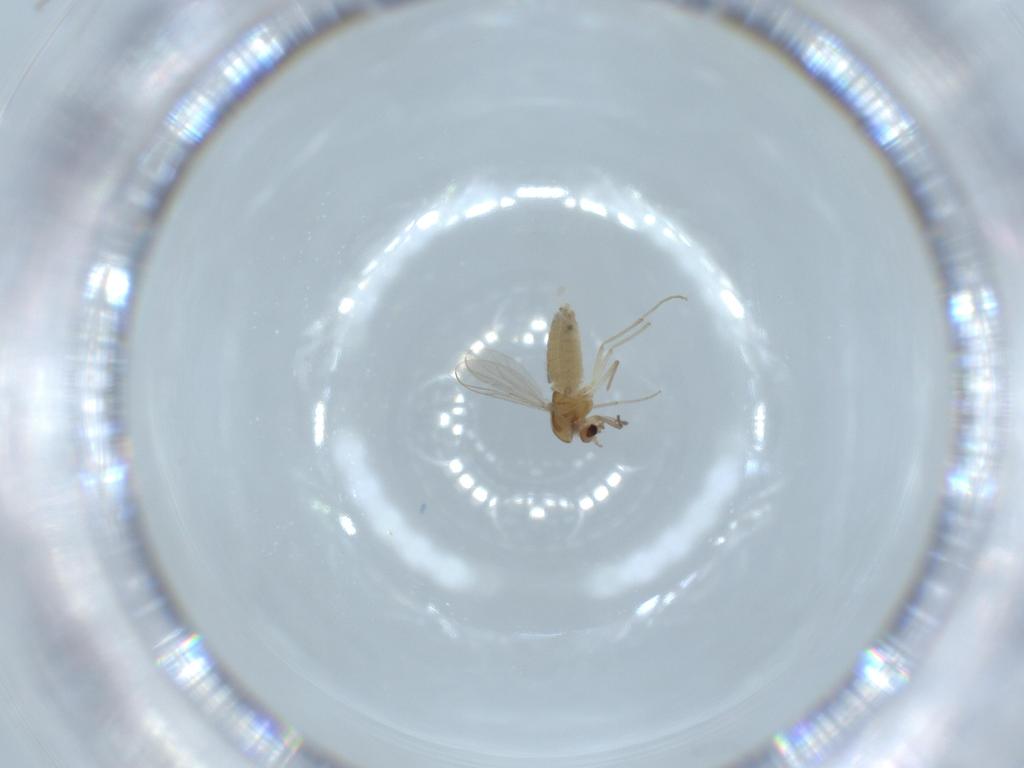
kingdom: Animalia
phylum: Arthropoda
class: Insecta
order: Diptera
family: Chironomidae
